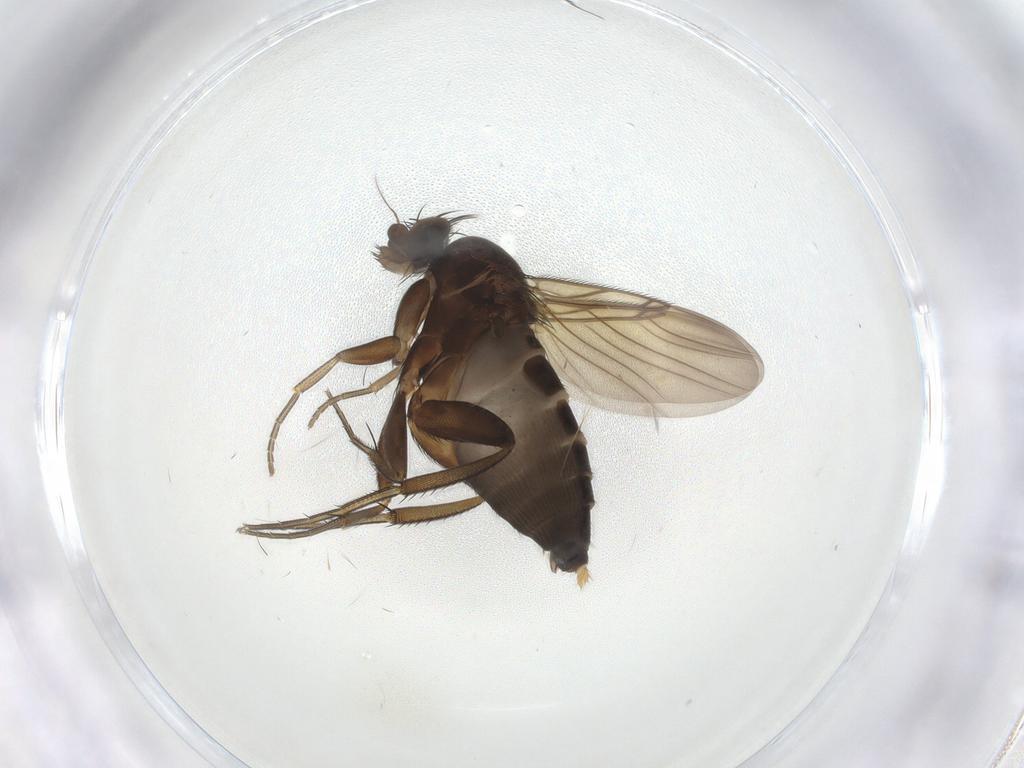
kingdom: Animalia
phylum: Arthropoda
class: Insecta
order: Diptera
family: Phoridae
